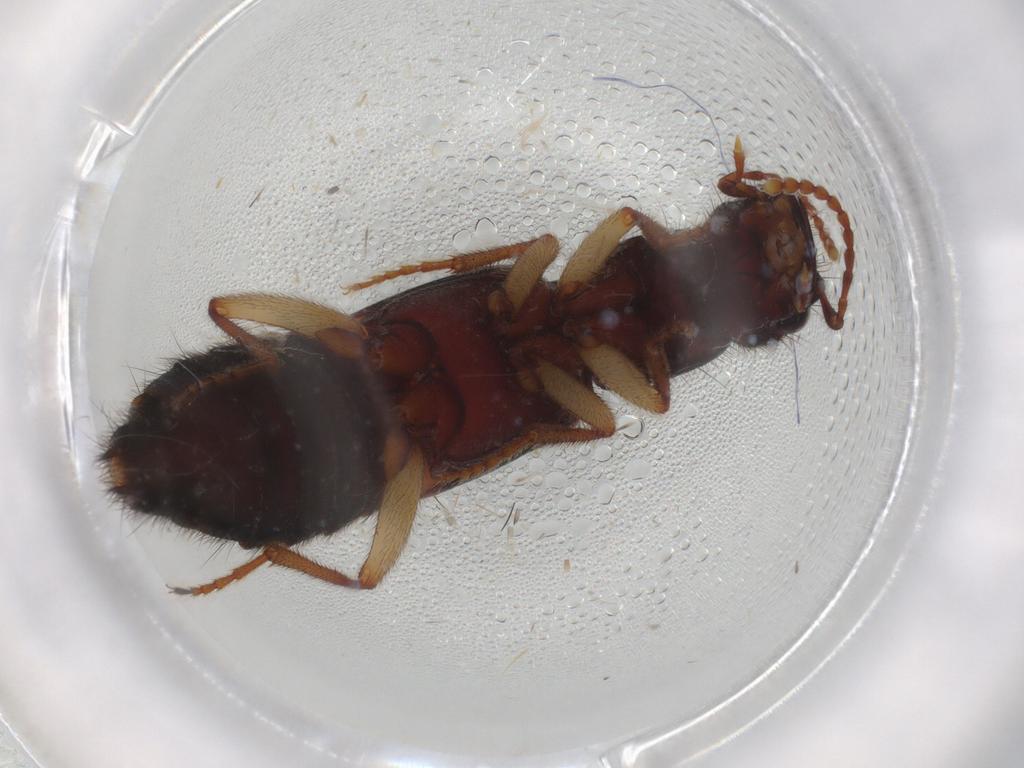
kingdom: Animalia
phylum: Arthropoda
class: Insecta
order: Coleoptera
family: Staphylinidae
